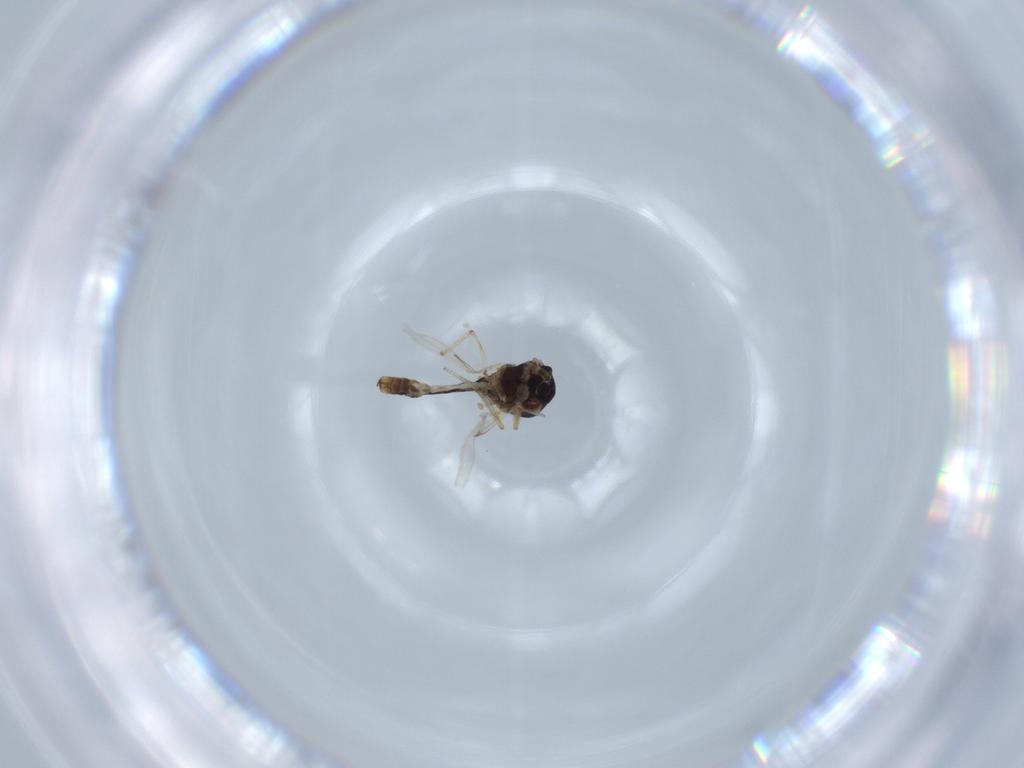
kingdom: Animalia
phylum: Arthropoda
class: Insecta
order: Diptera
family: Ceratopogonidae
